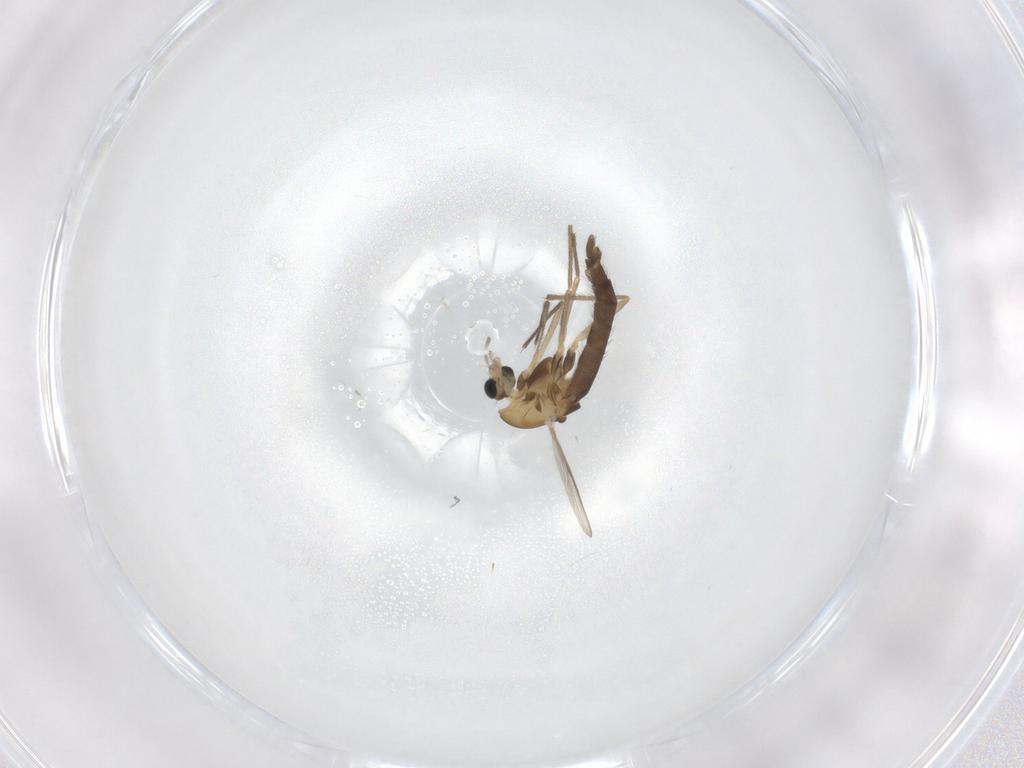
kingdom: Animalia
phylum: Arthropoda
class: Insecta
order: Diptera
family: Chironomidae
